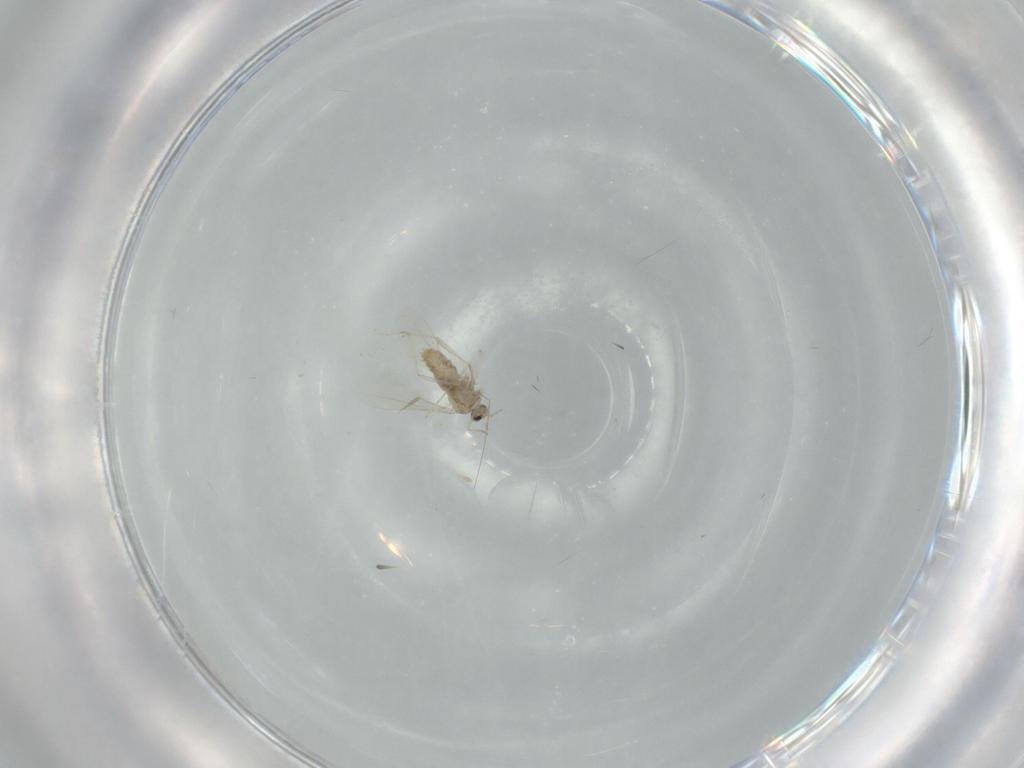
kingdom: Animalia
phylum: Arthropoda
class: Insecta
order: Diptera
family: Cecidomyiidae
